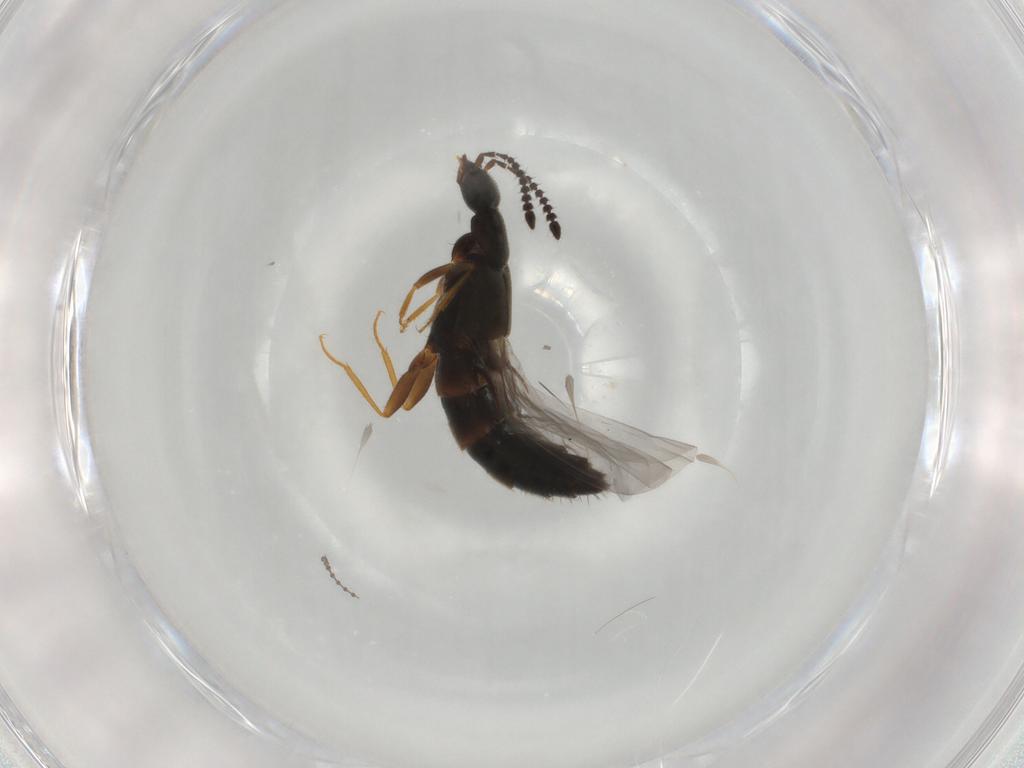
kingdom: Animalia
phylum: Arthropoda
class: Insecta
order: Coleoptera
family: Staphylinidae
